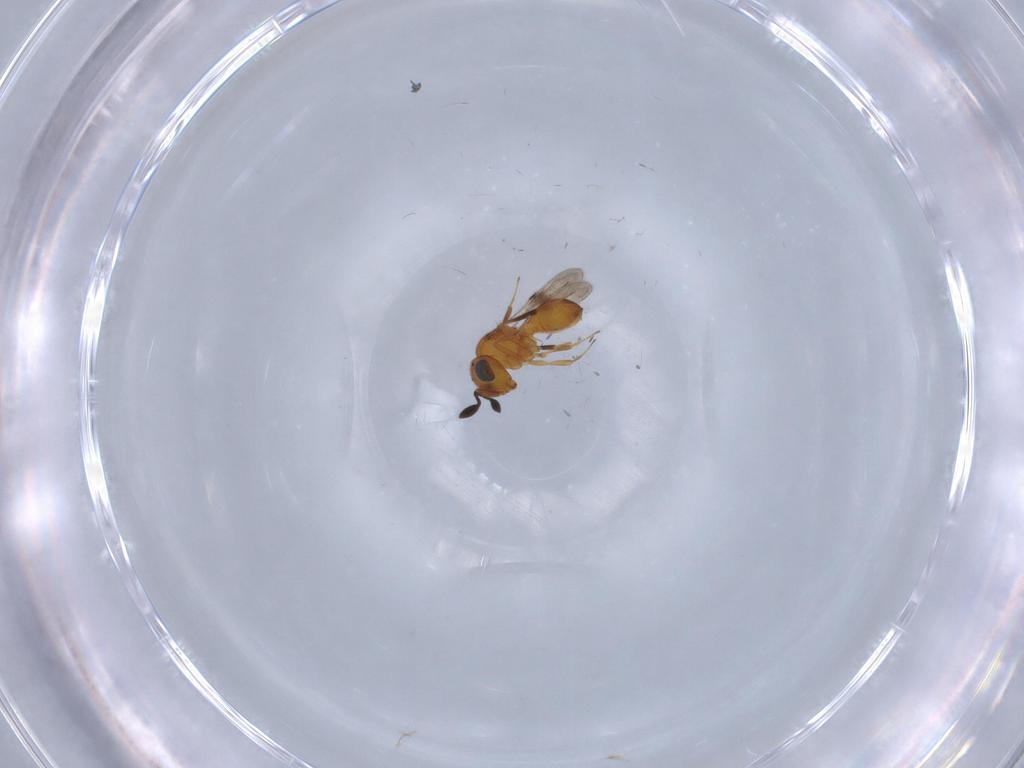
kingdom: Animalia
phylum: Arthropoda
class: Insecta
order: Hymenoptera
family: Scelionidae
